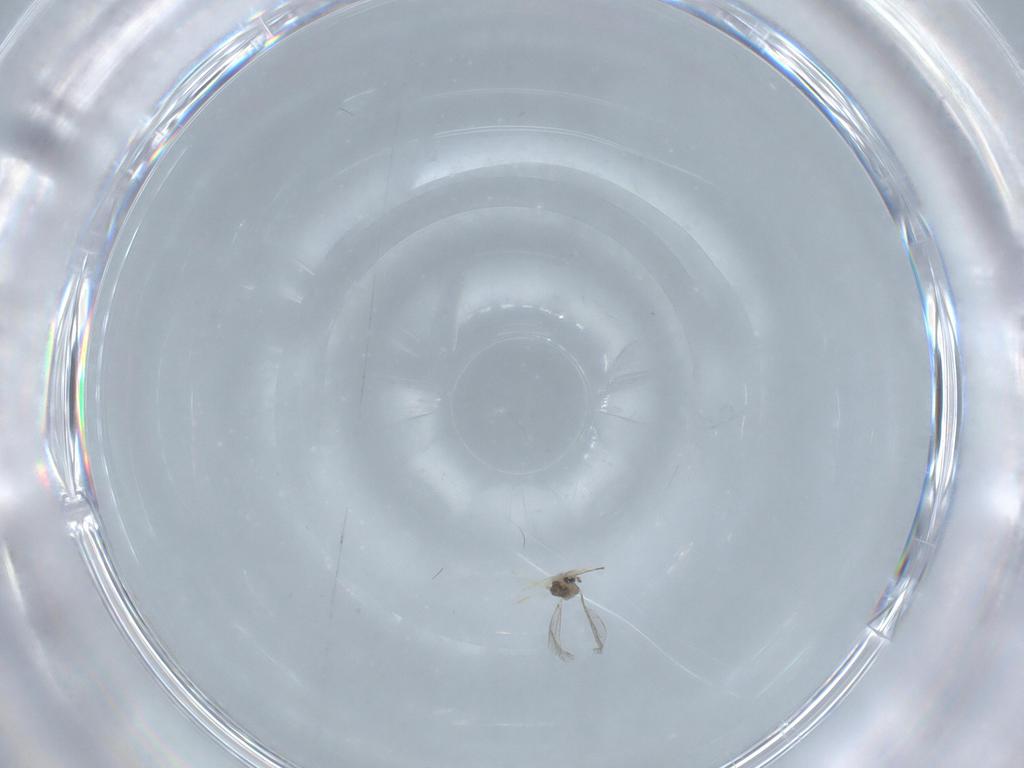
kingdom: Animalia
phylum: Arthropoda
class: Insecta
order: Diptera
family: Cecidomyiidae
